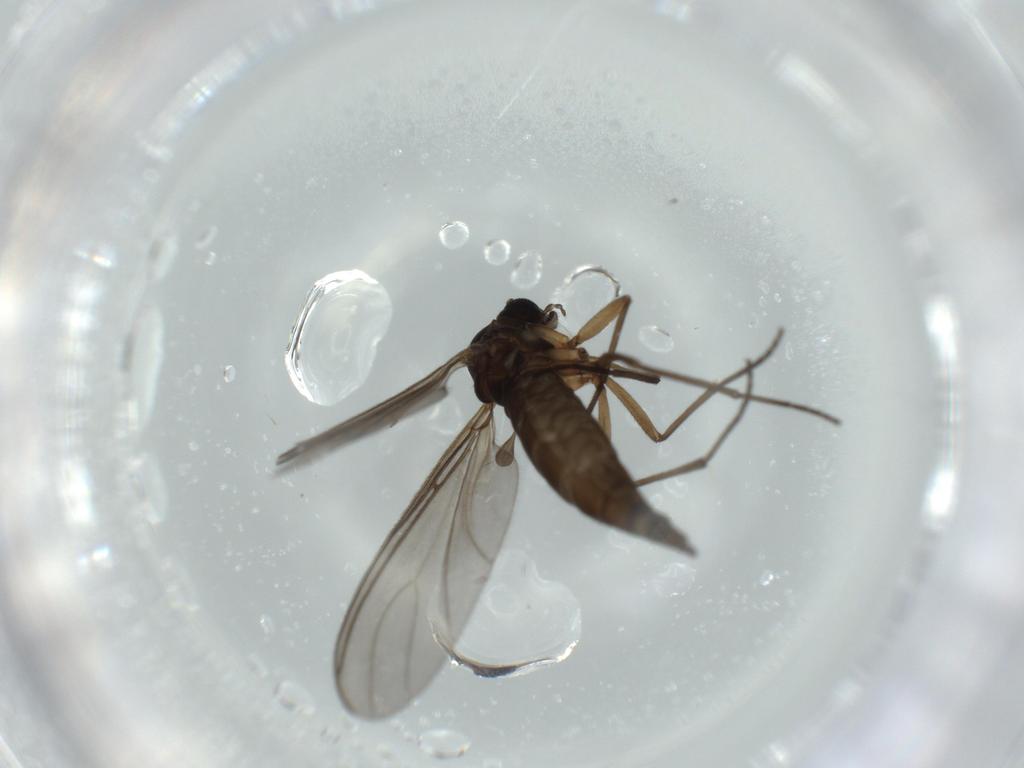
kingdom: Animalia
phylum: Arthropoda
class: Insecta
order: Diptera
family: Sciaridae
